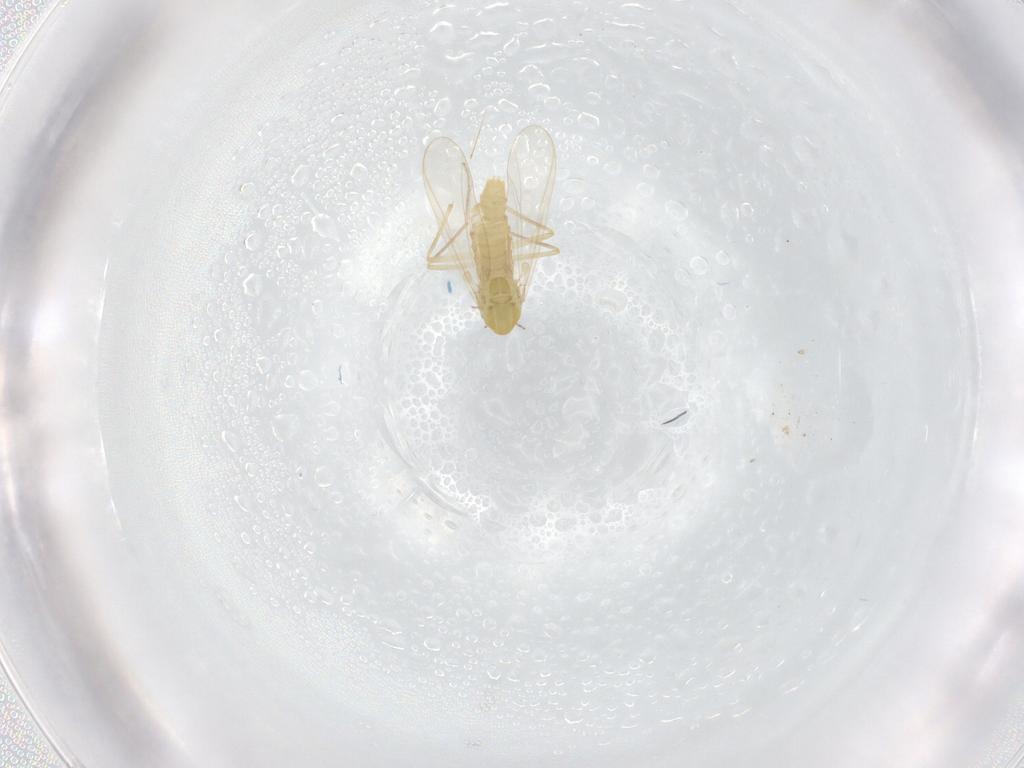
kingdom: Animalia
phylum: Arthropoda
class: Insecta
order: Diptera
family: Chironomidae
